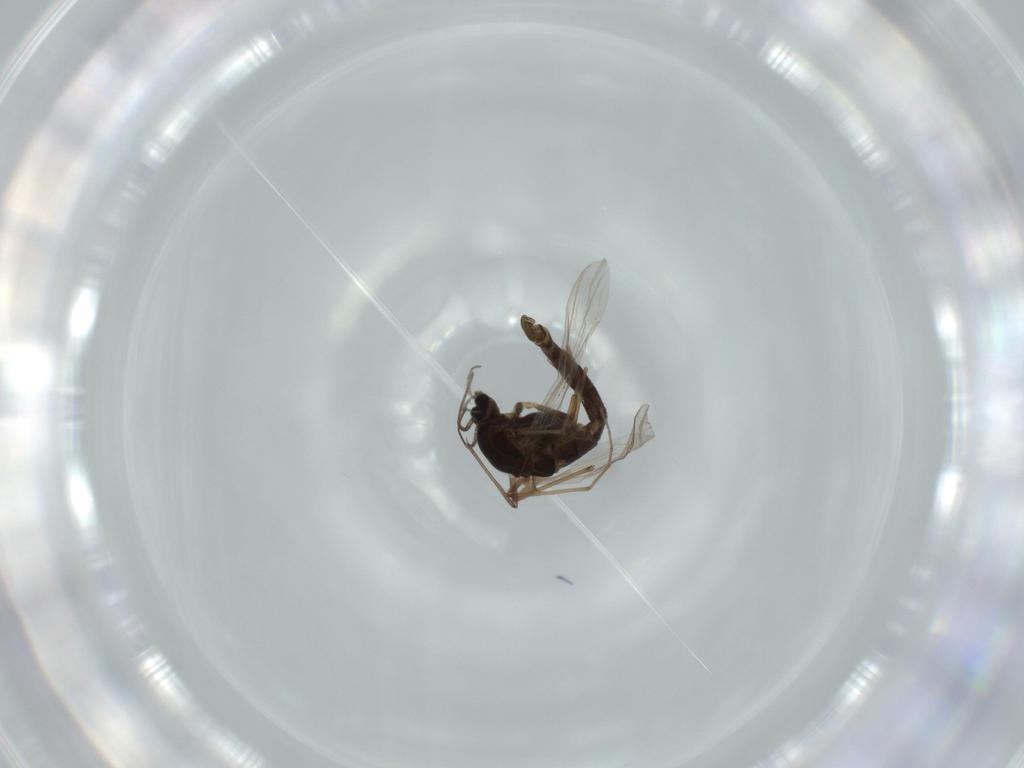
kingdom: Animalia
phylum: Arthropoda
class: Insecta
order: Diptera
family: Chironomidae
